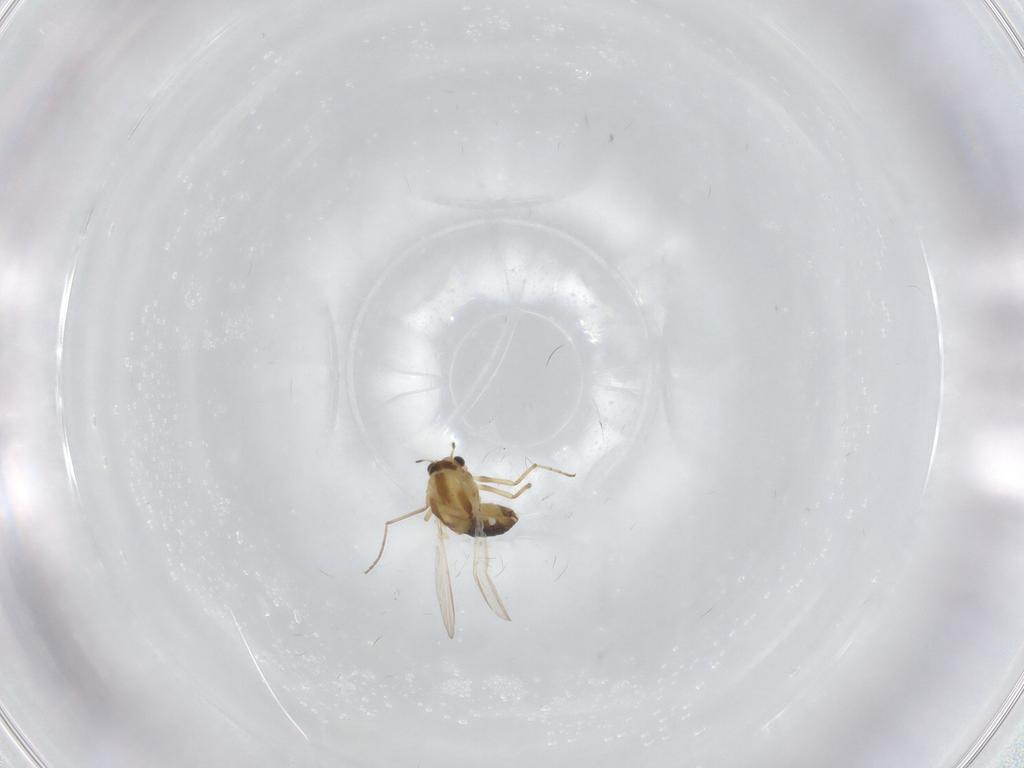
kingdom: Animalia
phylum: Arthropoda
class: Insecta
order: Diptera
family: Chironomidae
